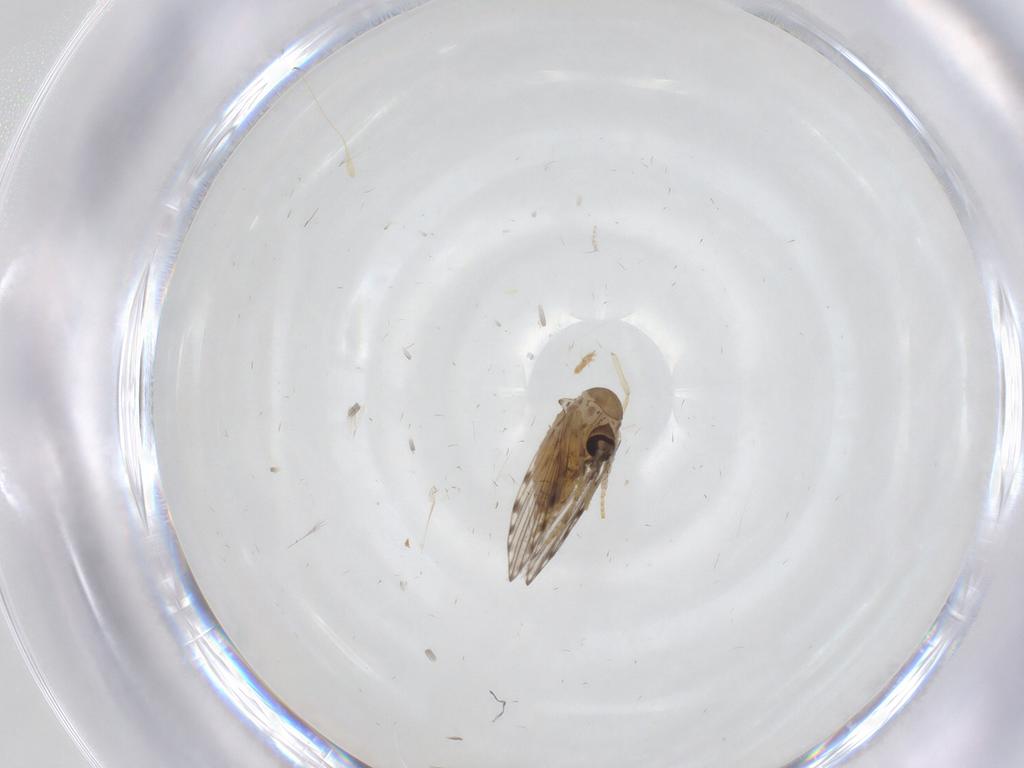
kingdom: Animalia
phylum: Arthropoda
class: Insecta
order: Diptera
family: Psychodidae
